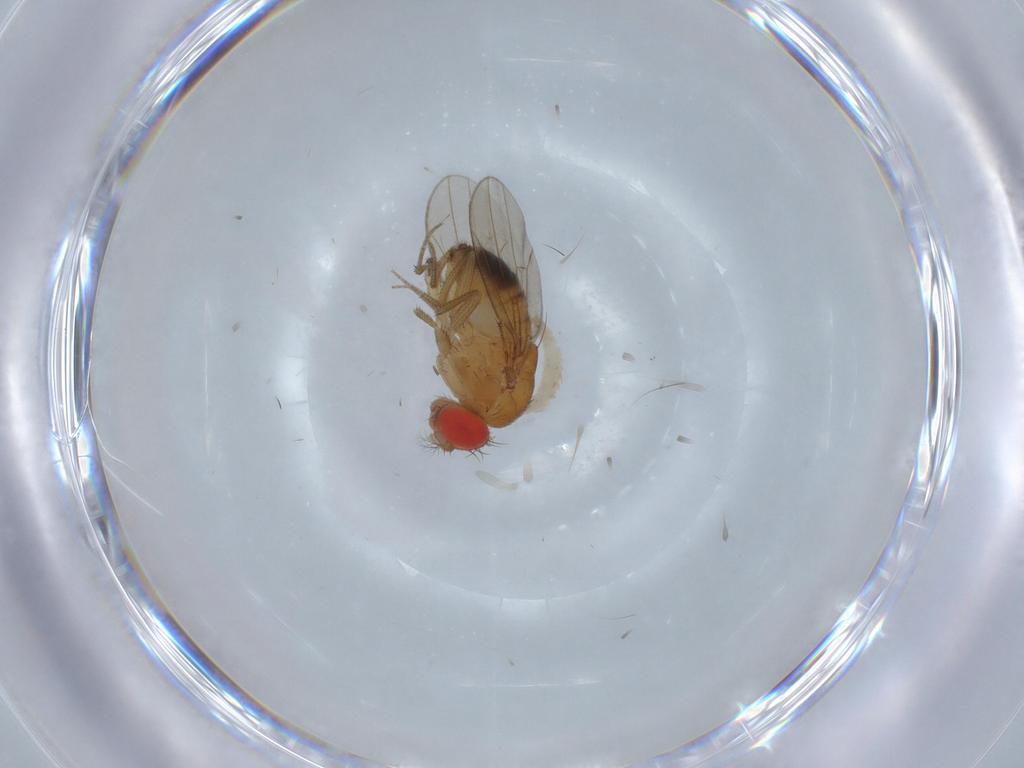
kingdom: Animalia
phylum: Arthropoda
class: Insecta
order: Diptera
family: Drosophilidae
